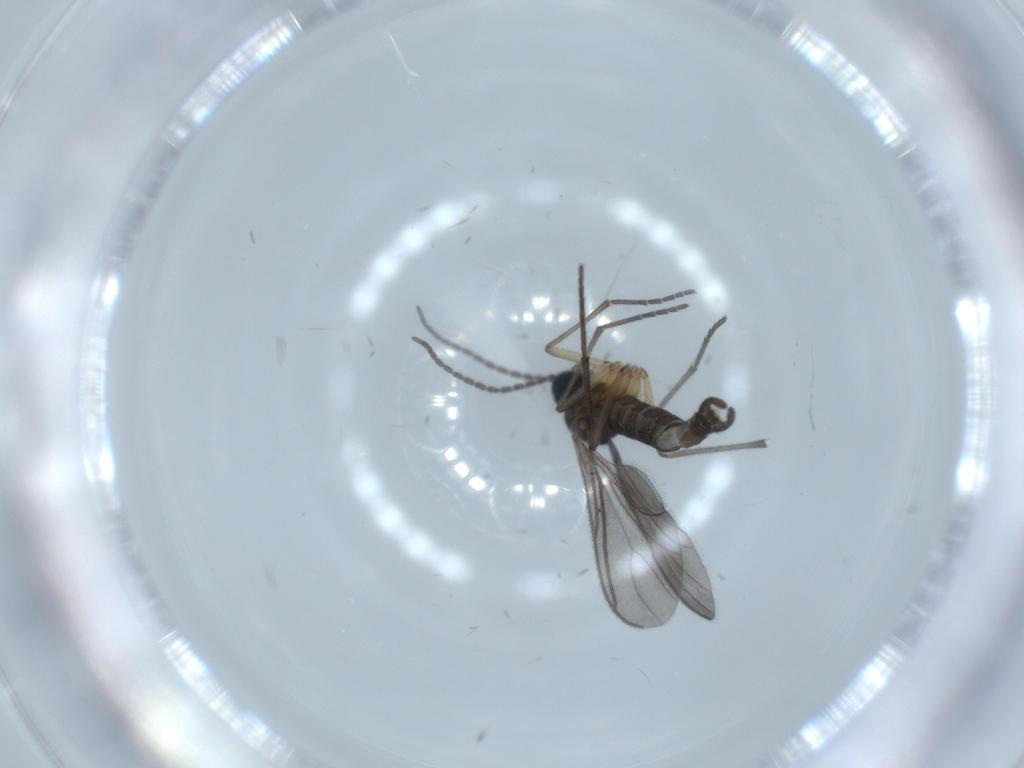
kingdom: Animalia
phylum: Arthropoda
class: Insecta
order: Diptera
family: Sciaridae
